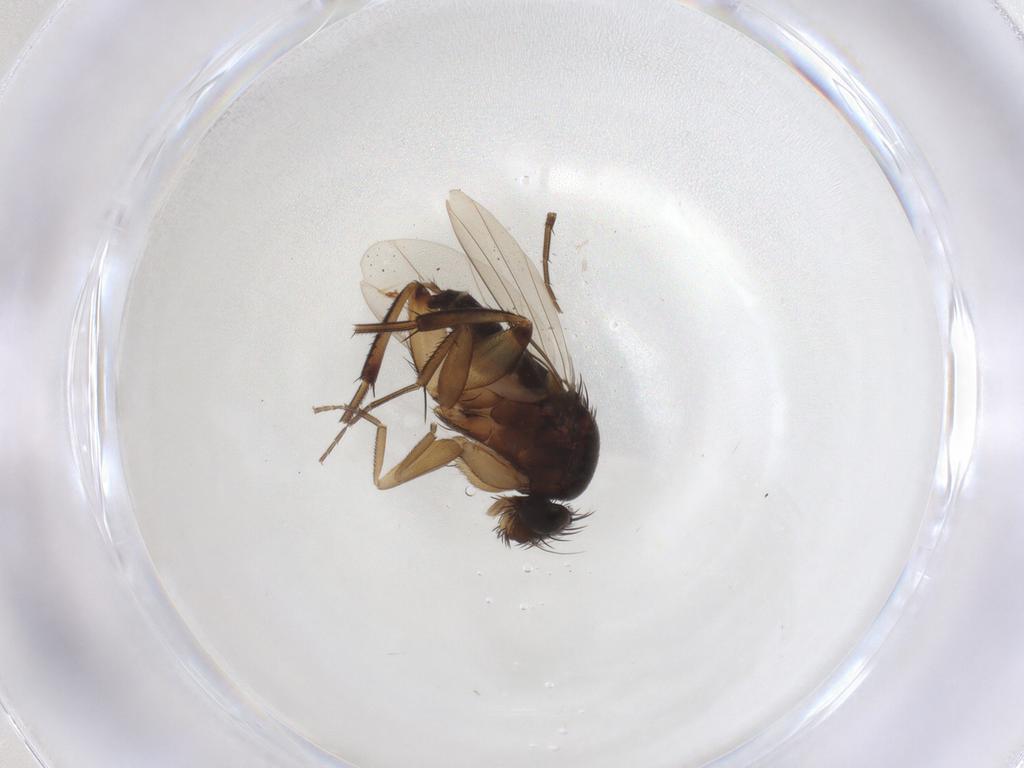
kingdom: Animalia
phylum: Arthropoda
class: Insecta
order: Diptera
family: Phoridae
